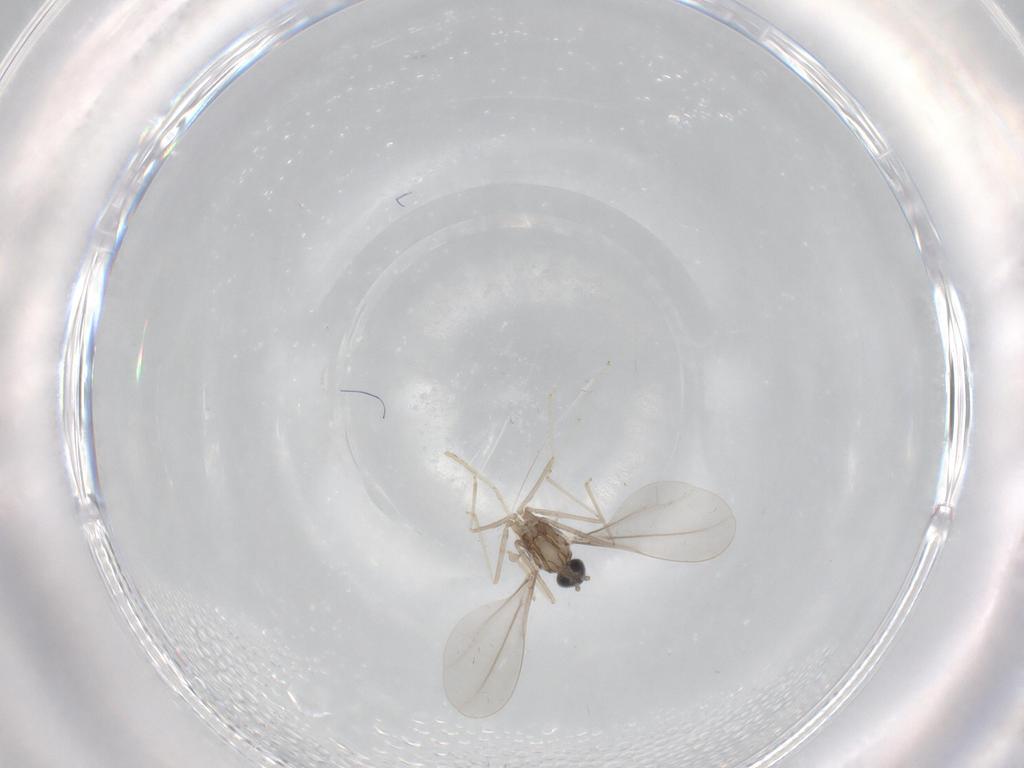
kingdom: Animalia
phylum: Arthropoda
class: Insecta
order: Diptera
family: Cecidomyiidae
